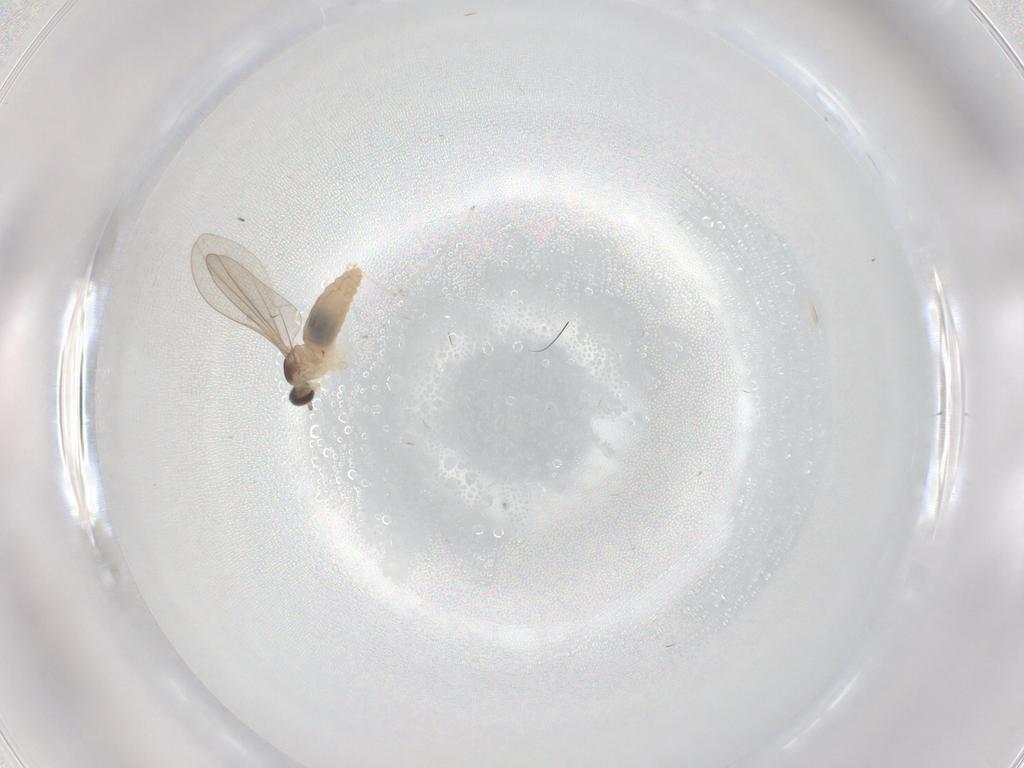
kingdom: Animalia
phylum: Arthropoda
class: Insecta
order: Diptera
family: Cecidomyiidae
